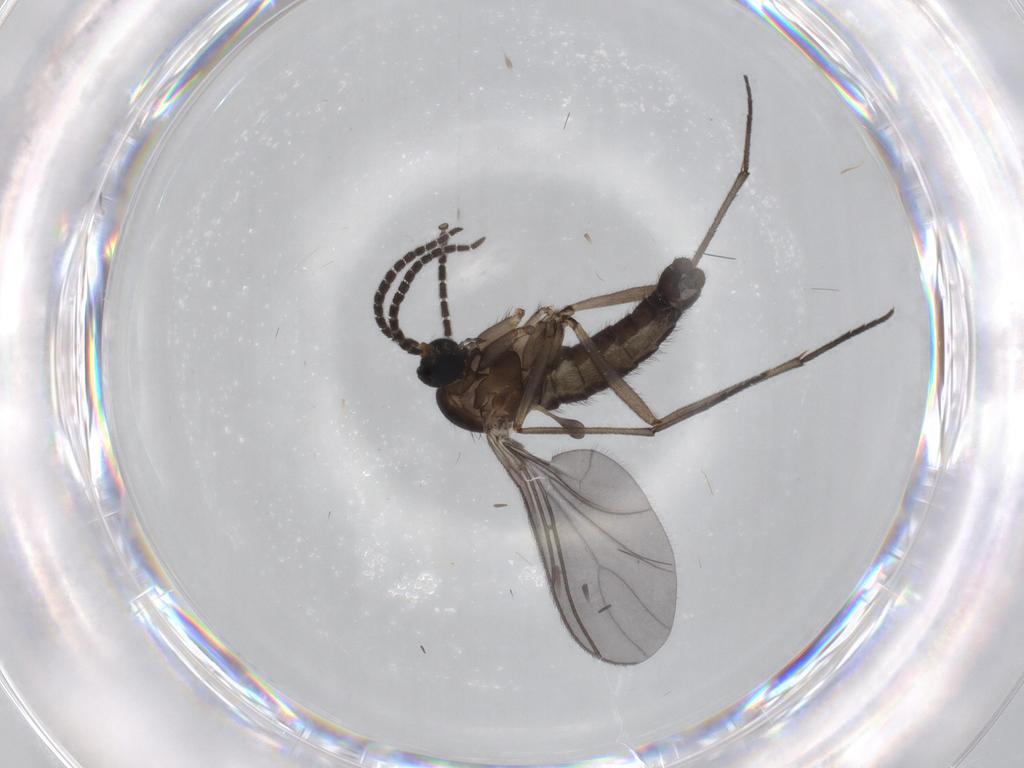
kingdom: Animalia
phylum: Arthropoda
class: Insecta
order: Diptera
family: Sciaridae
